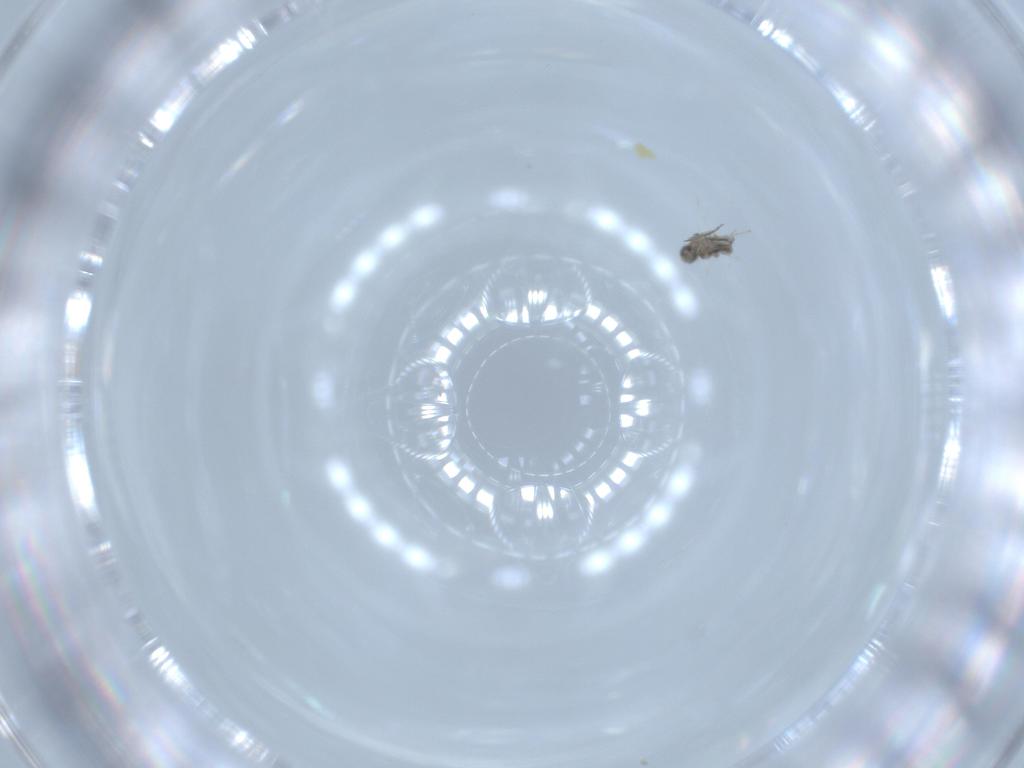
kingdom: Animalia
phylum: Arthropoda
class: Insecta
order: Diptera
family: Cecidomyiidae
